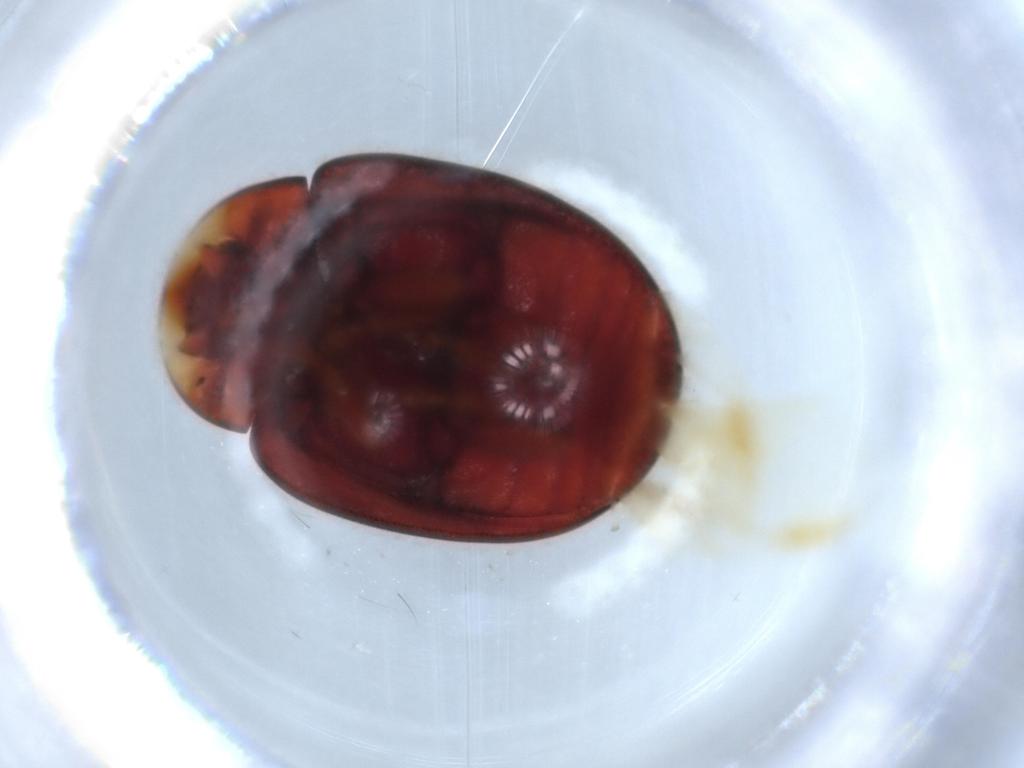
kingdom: Animalia
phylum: Arthropoda
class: Insecta
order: Coleoptera
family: Coccinellidae
